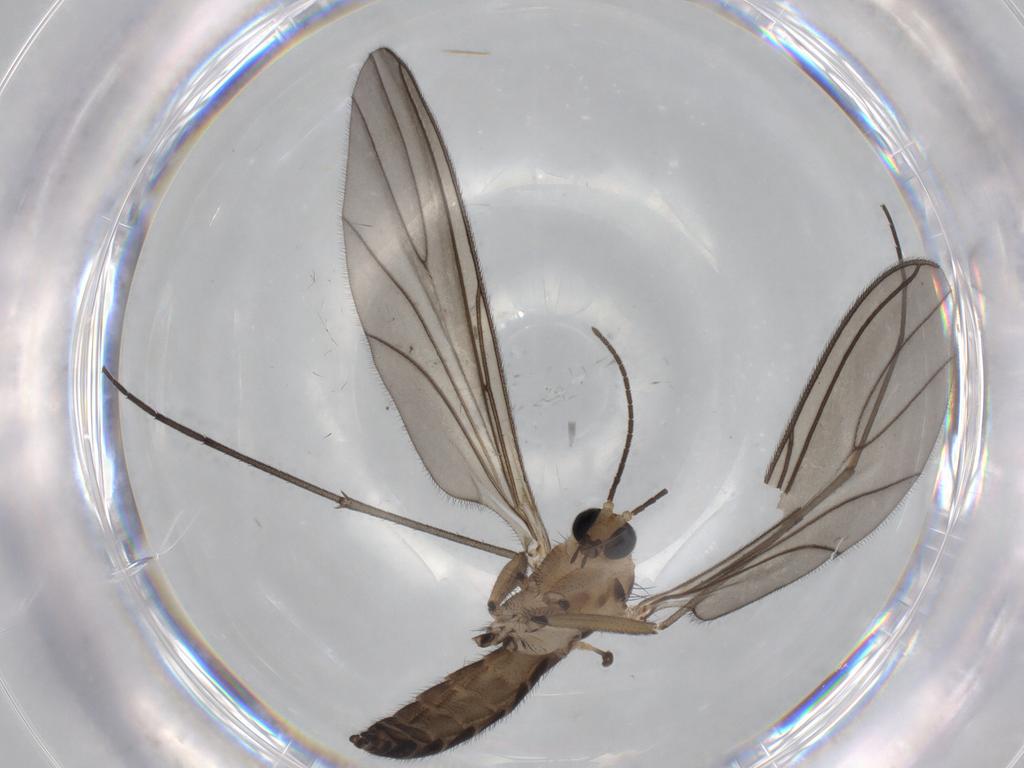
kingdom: Animalia
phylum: Arthropoda
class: Insecta
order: Diptera
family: Sciaridae
